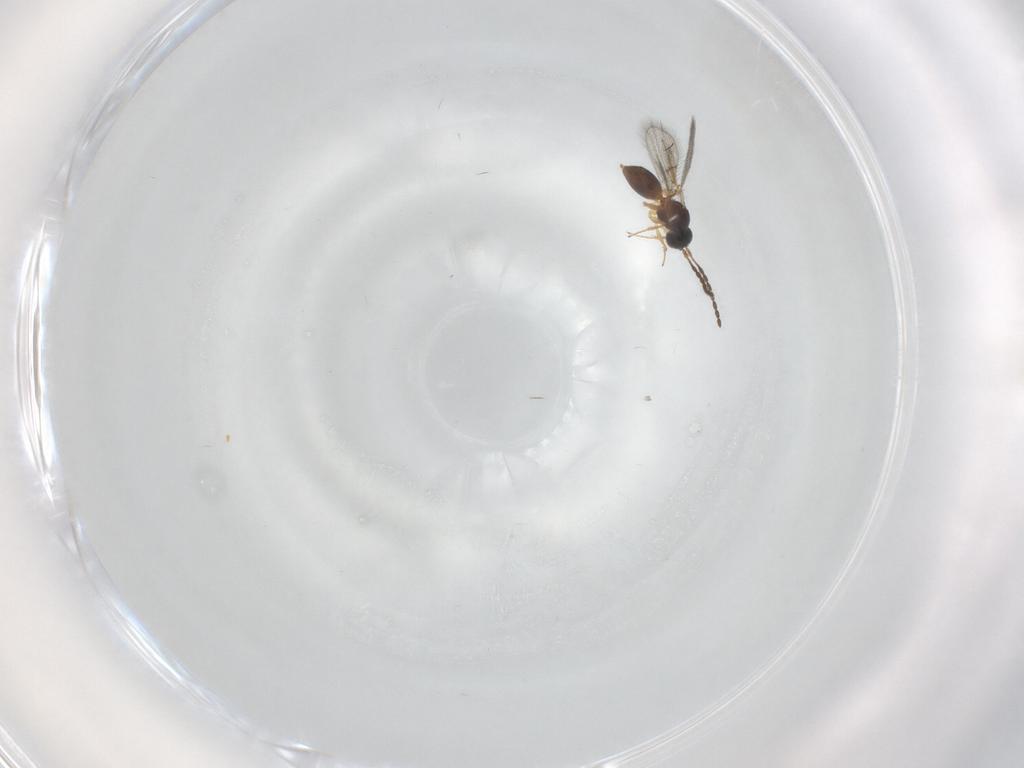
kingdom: Animalia
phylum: Arthropoda
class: Insecta
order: Hymenoptera
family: Figitidae
